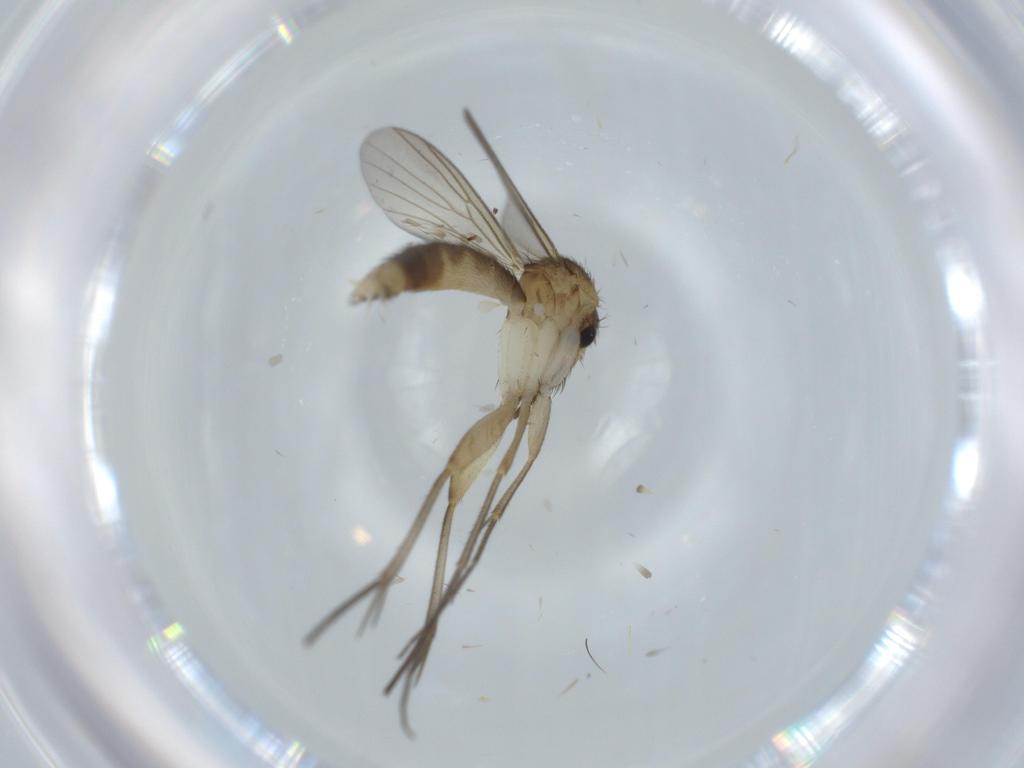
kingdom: Animalia
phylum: Arthropoda
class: Insecta
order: Diptera
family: Mycetophilidae
